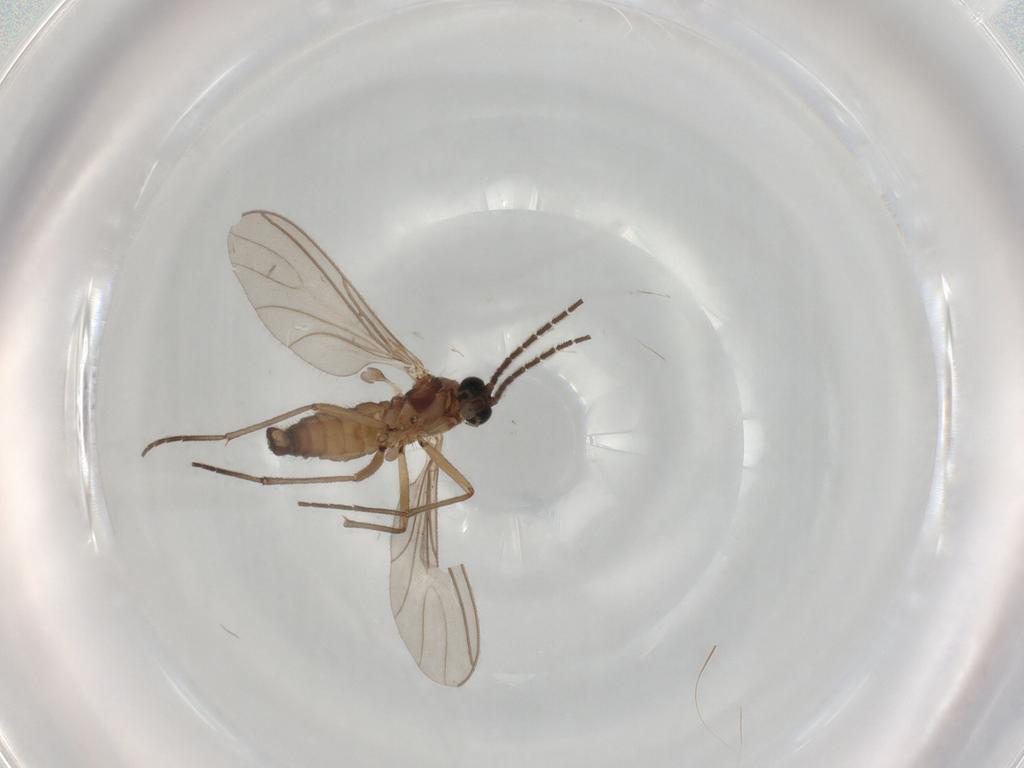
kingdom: Animalia
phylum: Arthropoda
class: Insecta
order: Diptera
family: Sciaridae
